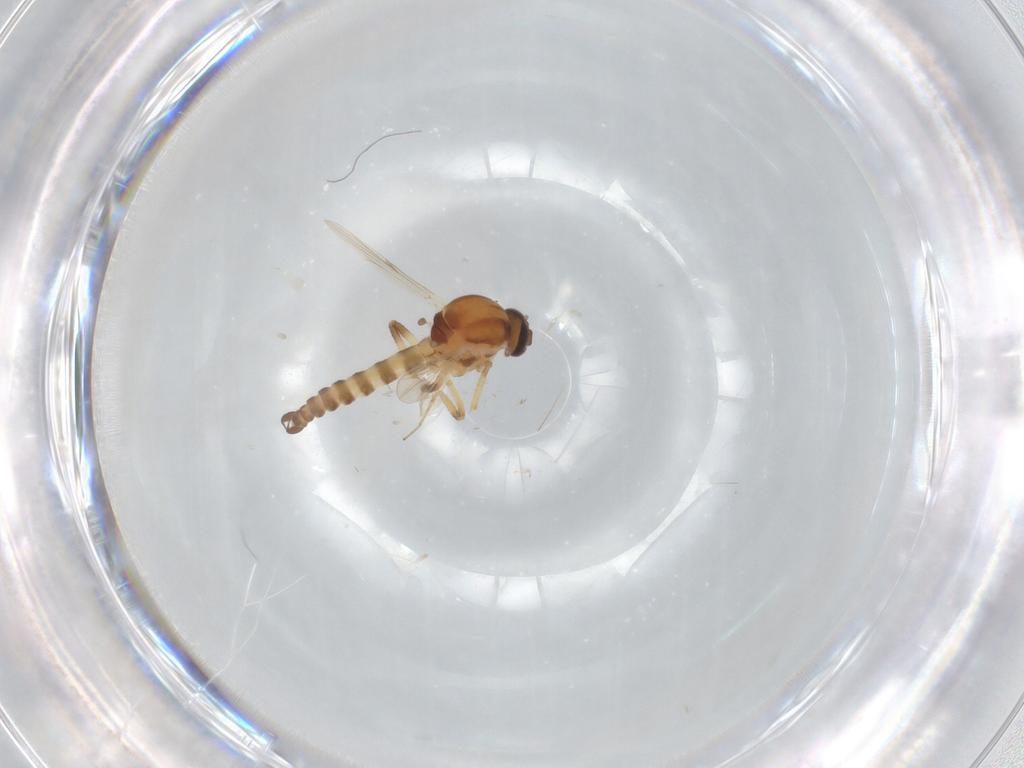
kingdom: Animalia
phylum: Arthropoda
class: Insecta
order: Diptera
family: Ceratopogonidae
